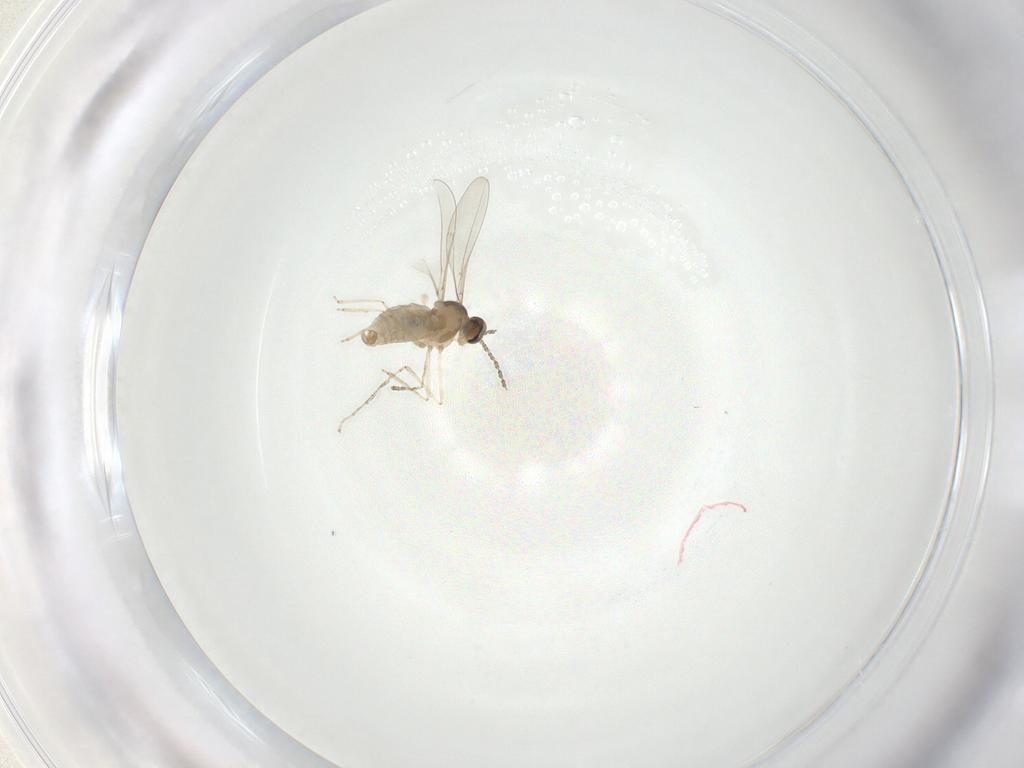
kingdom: Animalia
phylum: Arthropoda
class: Insecta
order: Diptera
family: Cecidomyiidae
